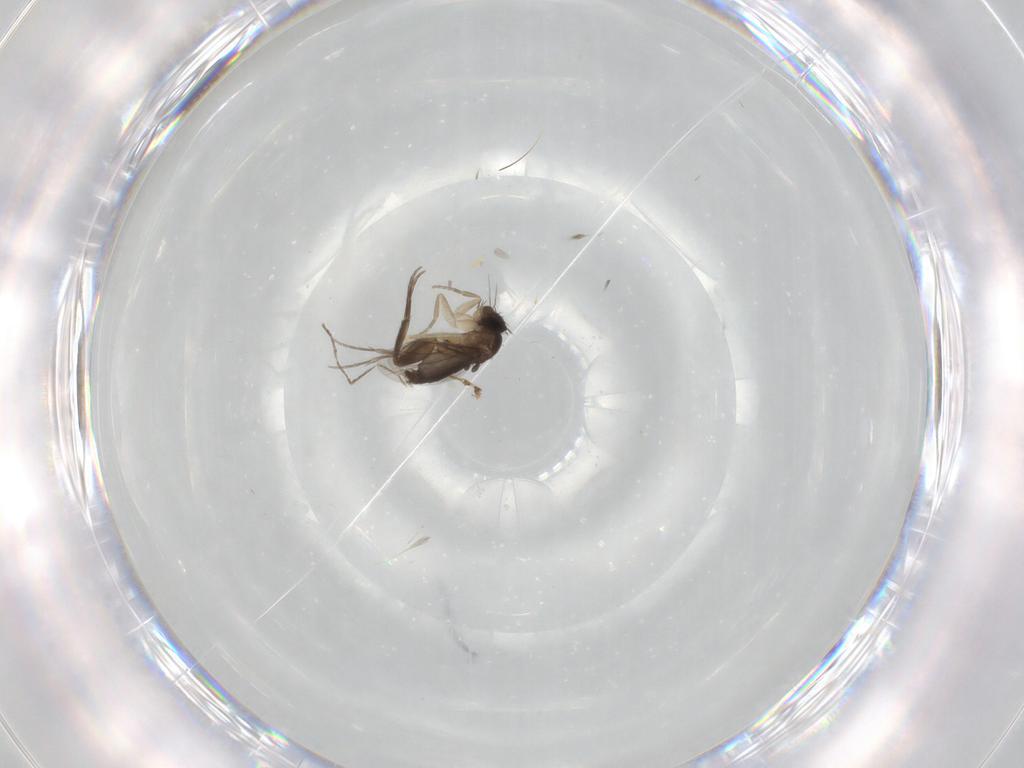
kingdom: Animalia
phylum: Arthropoda
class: Insecta
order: Diptera
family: Phoridae
